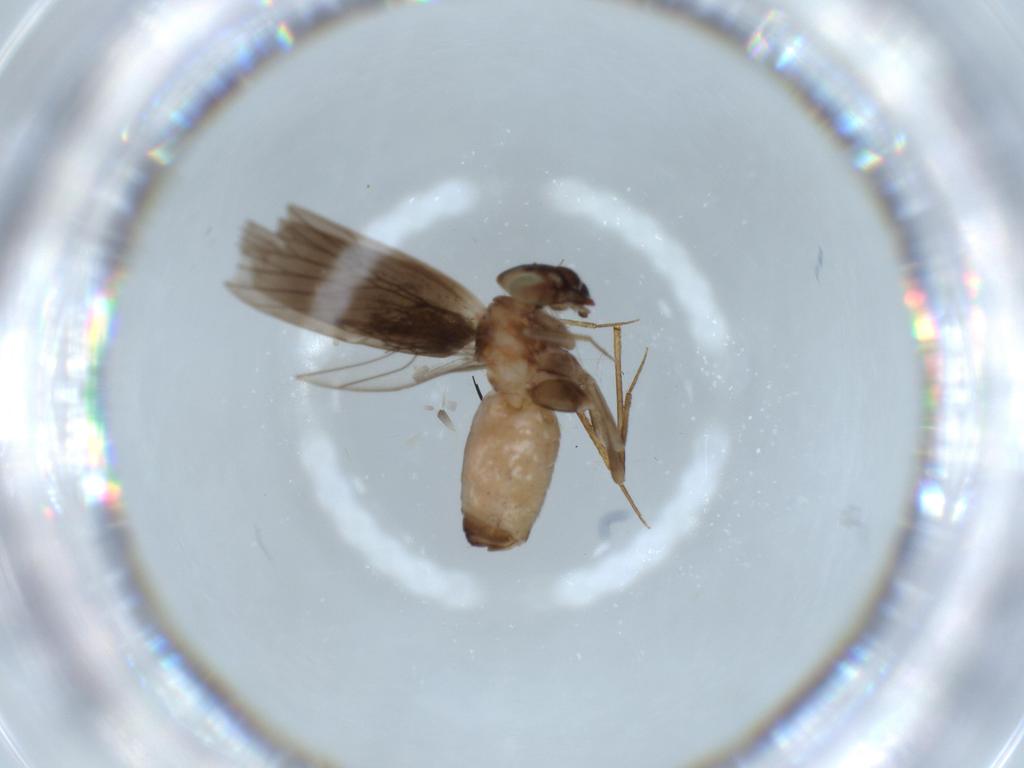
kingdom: Animalia
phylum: Arthropoda
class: Insecta
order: Psocodea
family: Lepidopsocidae
